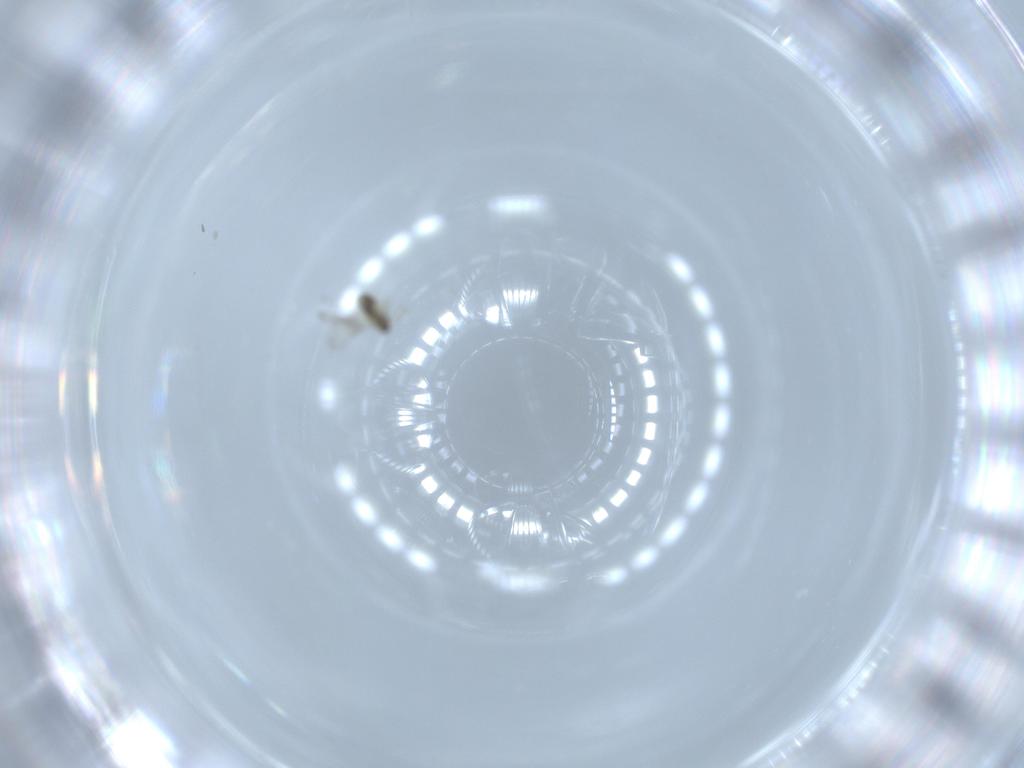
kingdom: Animalia
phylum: Arthropoda
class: Insecta
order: Hymenoptera
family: Aphelinidae
